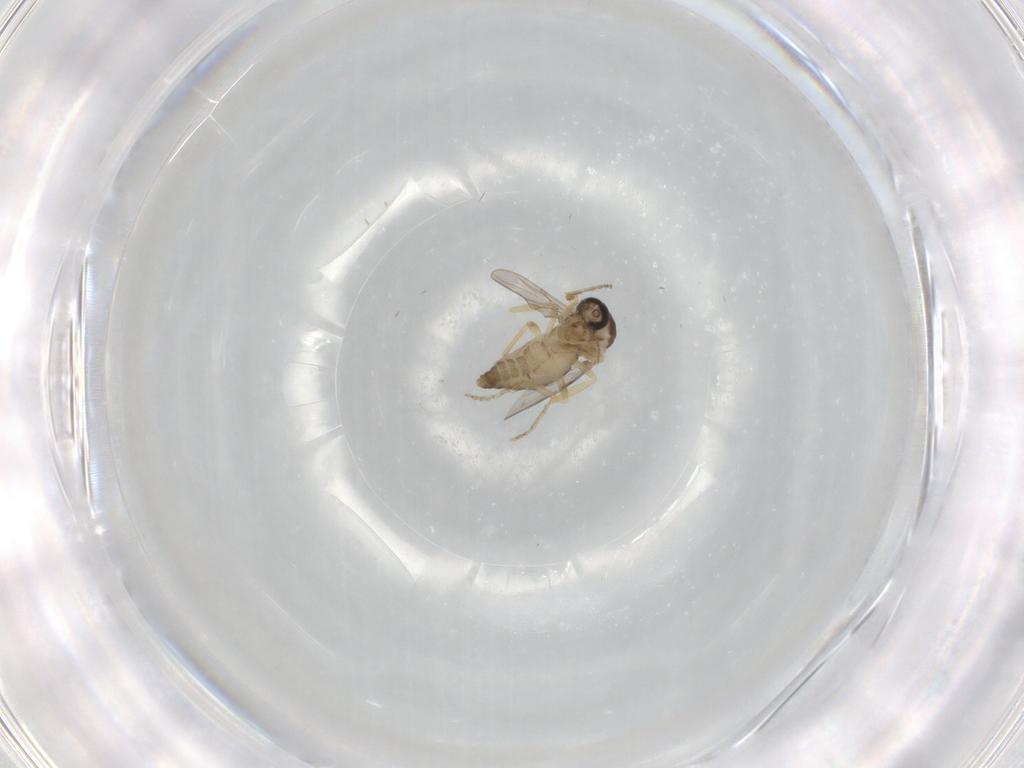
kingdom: Animalia
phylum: Arthropoda
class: Insecta
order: Diptera
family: Ceratopogonidae
